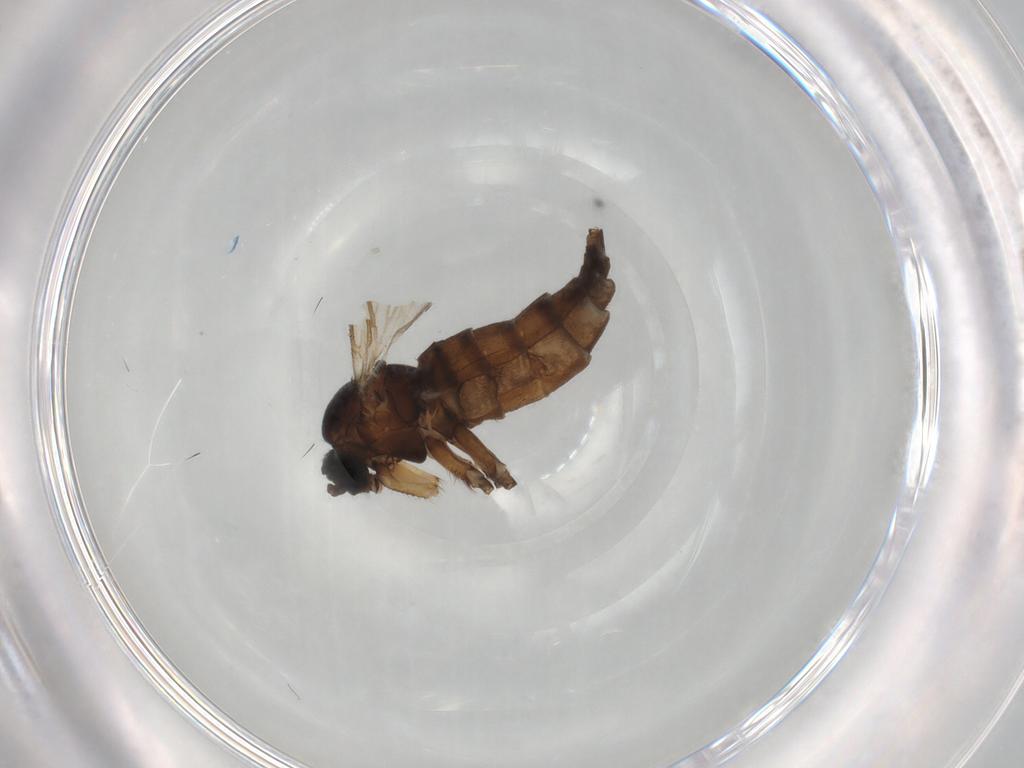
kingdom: Animalia
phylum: Arthropoda
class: Insecta
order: Diptera
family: Sciaridae
